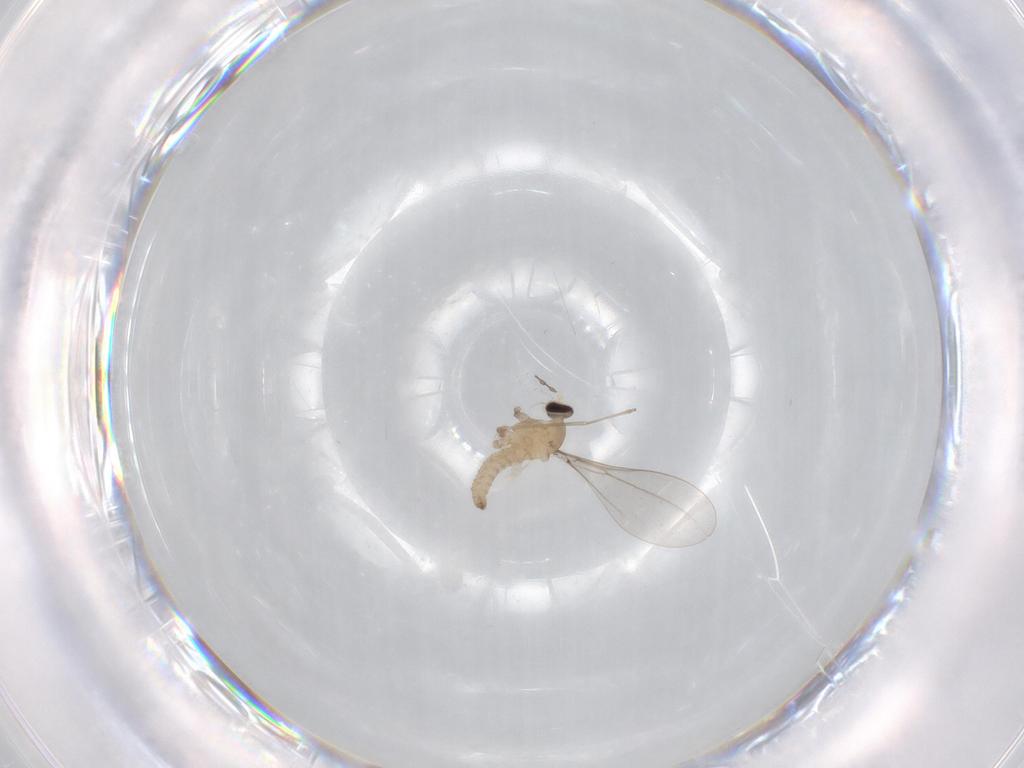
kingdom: Animalia
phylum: Arthropoda
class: Insecta
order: Diptera
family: Cecidomyiidae
